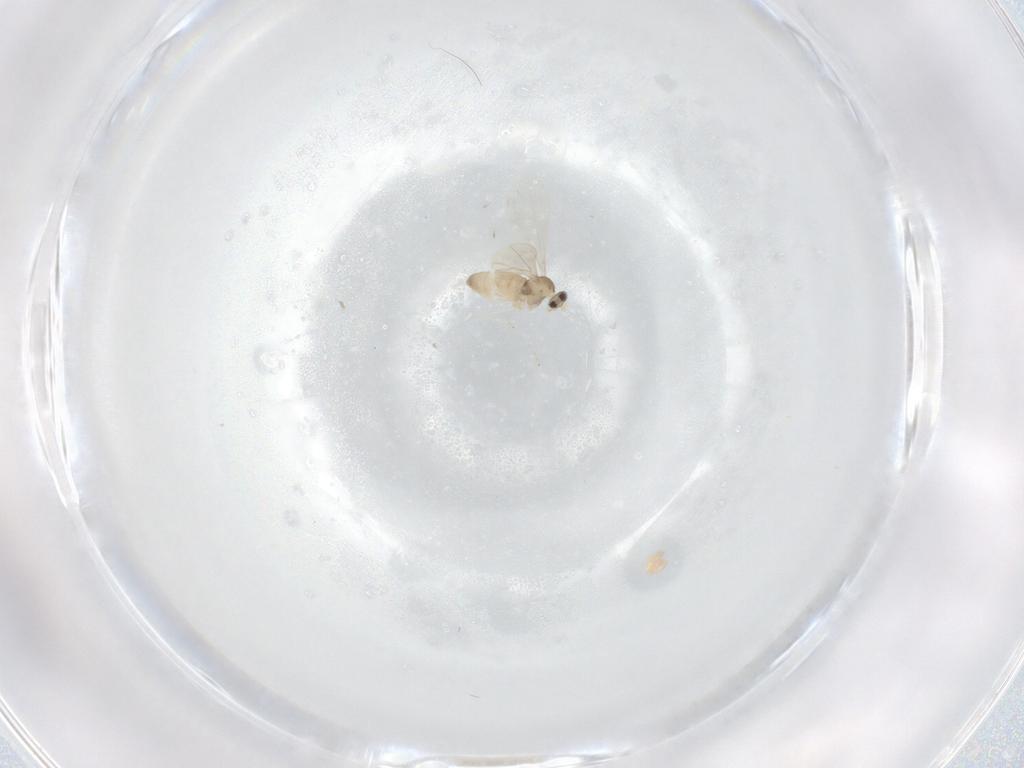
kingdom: Animalia
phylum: Arthropoda
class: Insecta
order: Diptera
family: Cecidomyiidae
